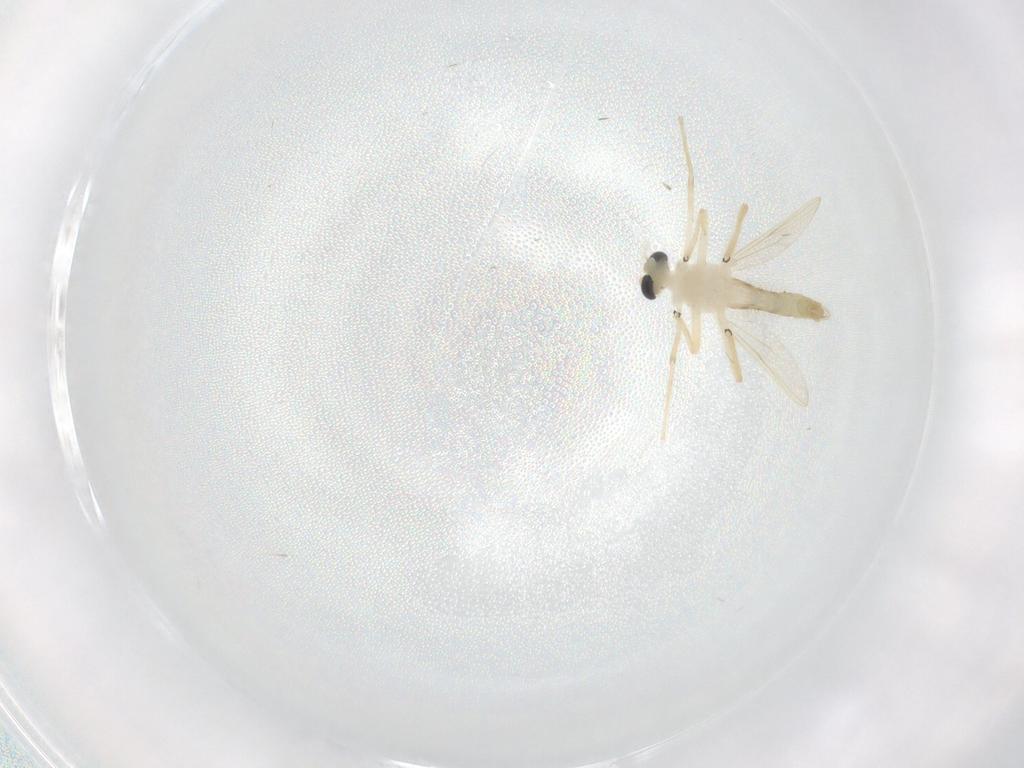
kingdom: Animalia
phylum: Arthropoda
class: Insecta
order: Diptera
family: Chironomidae
